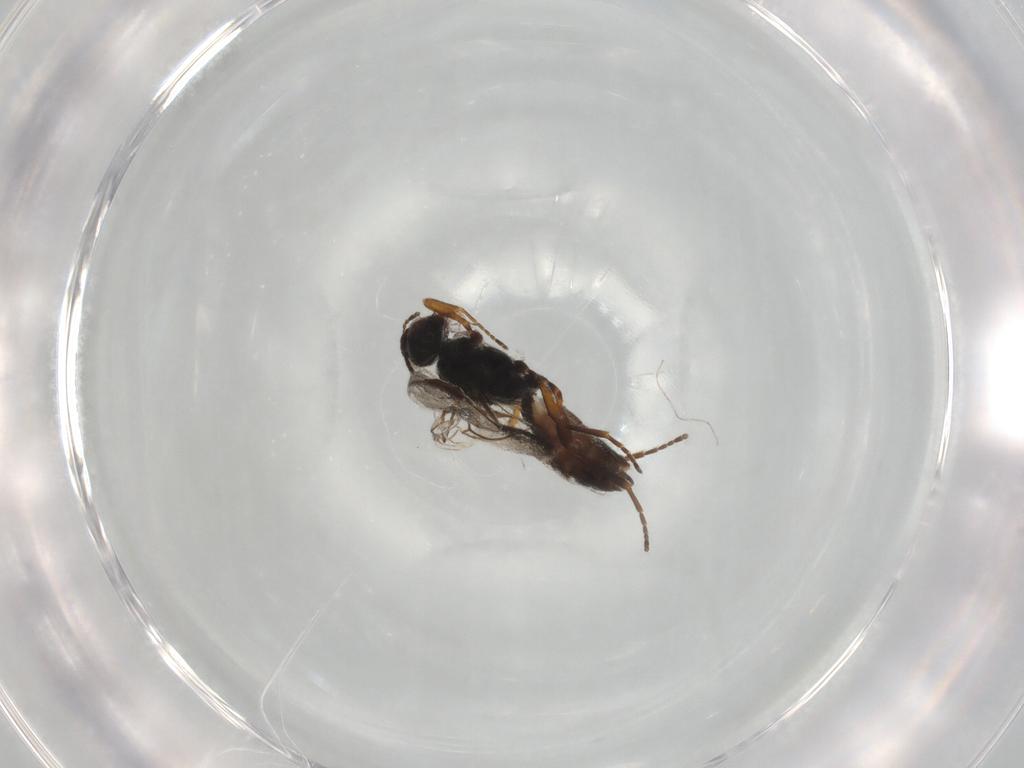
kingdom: Animalia
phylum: Arthropoda
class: Insecta
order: Hymenoptera
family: Braconidae
